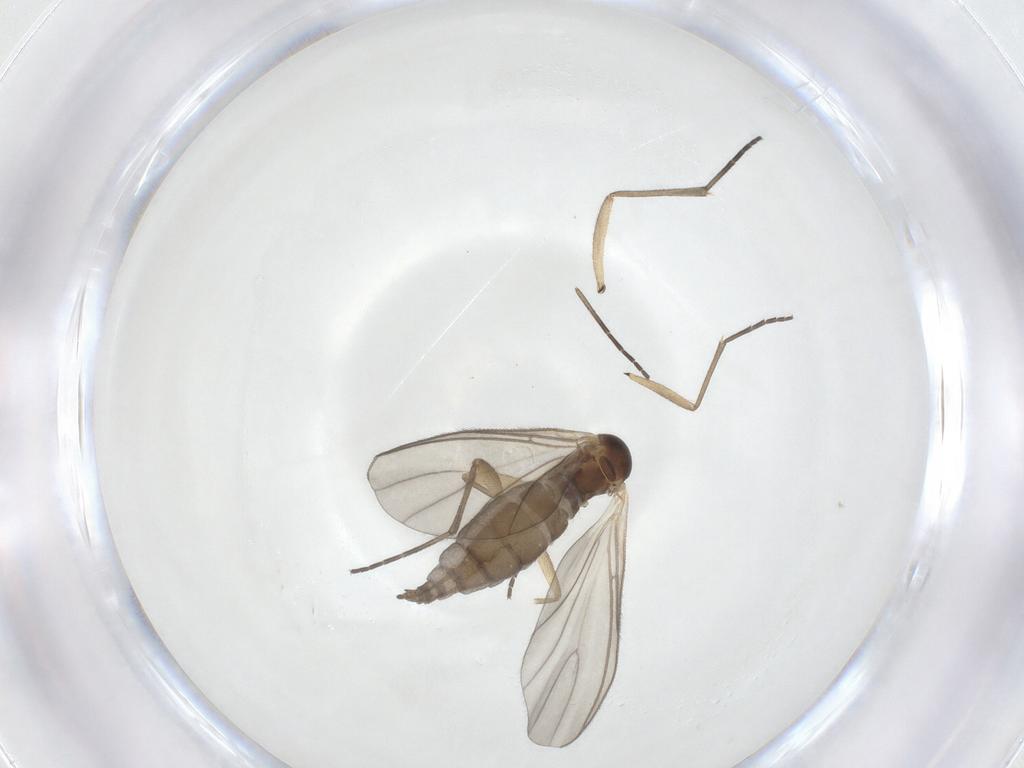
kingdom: Animalia
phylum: Arthropoda
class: Insecta
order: Diptera
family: Sciaridae
